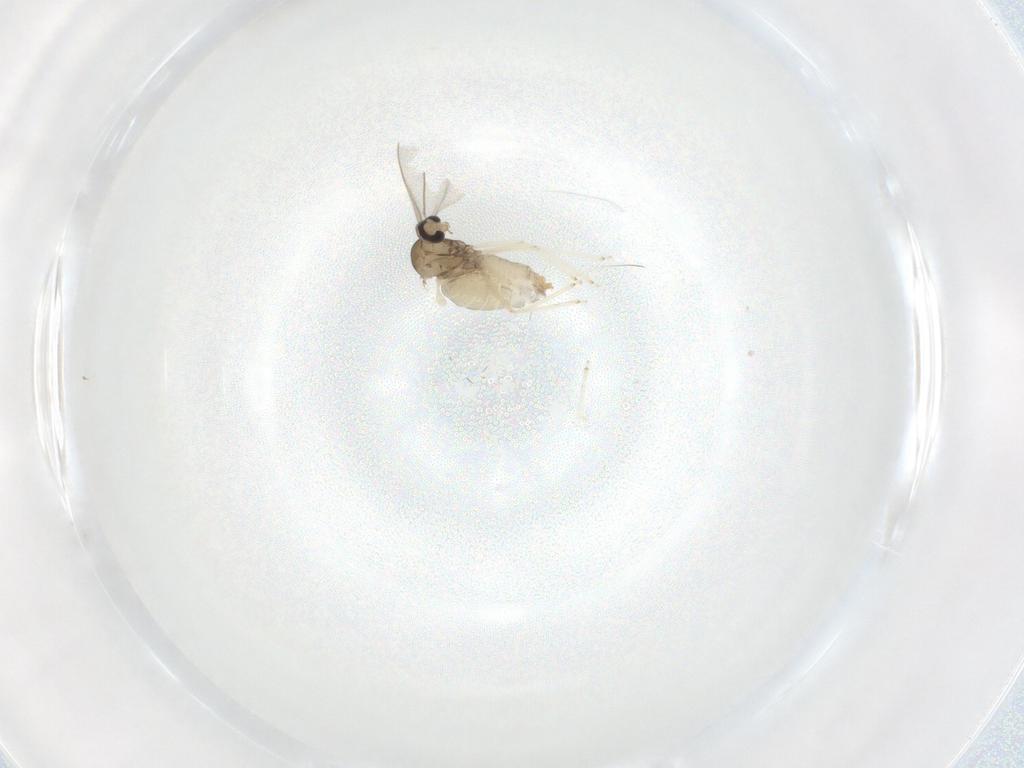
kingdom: Animalia
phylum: Arthropoda
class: Insecta
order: Diptera
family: Cecidomyiidae
